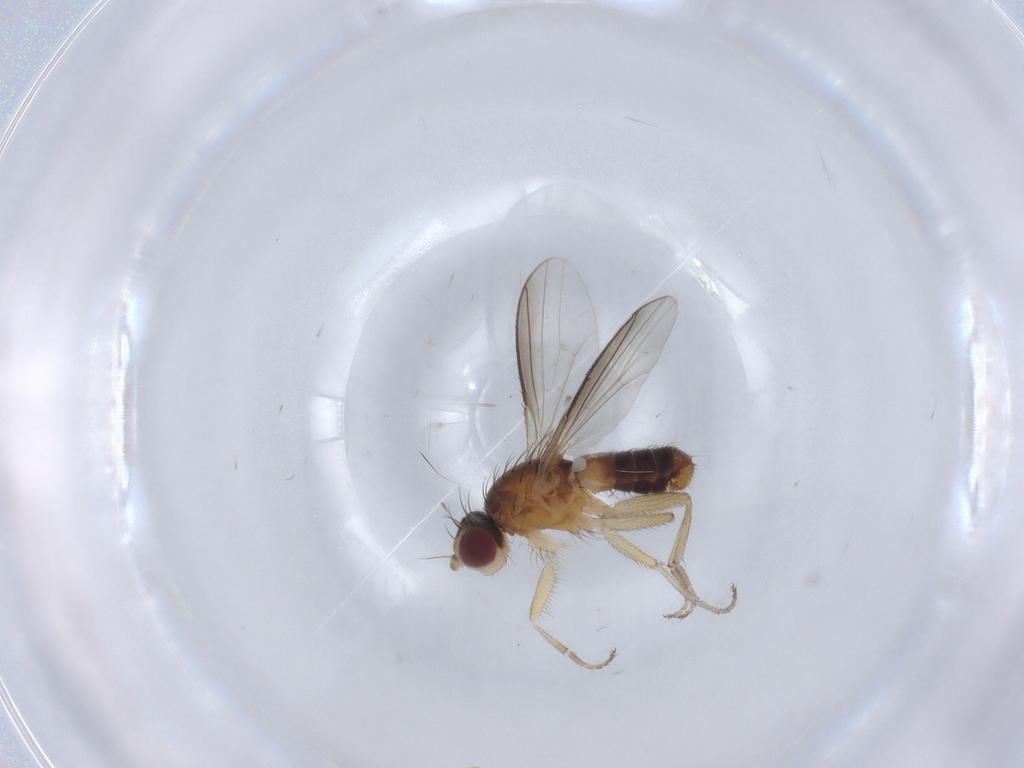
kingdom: Animalia
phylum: Arthropoda
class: Insecta
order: Diptera
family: Heleomyzidae
